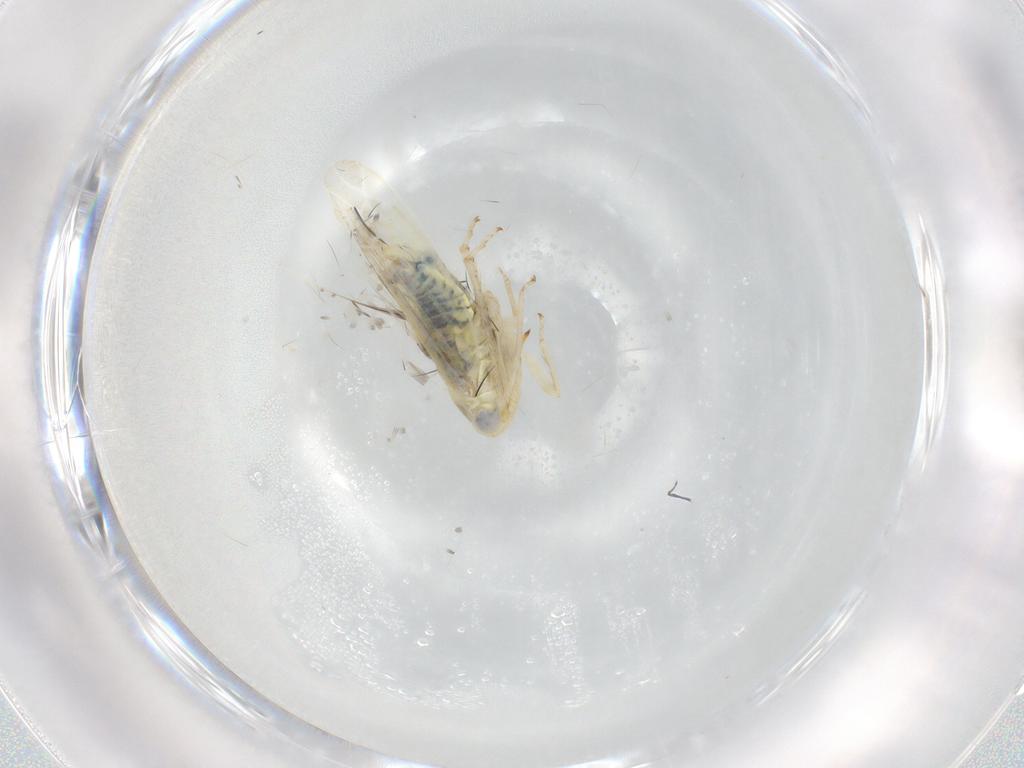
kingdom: Animalia
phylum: Arthropoda
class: Insecta
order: Hemiptera
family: Cicadellidae
